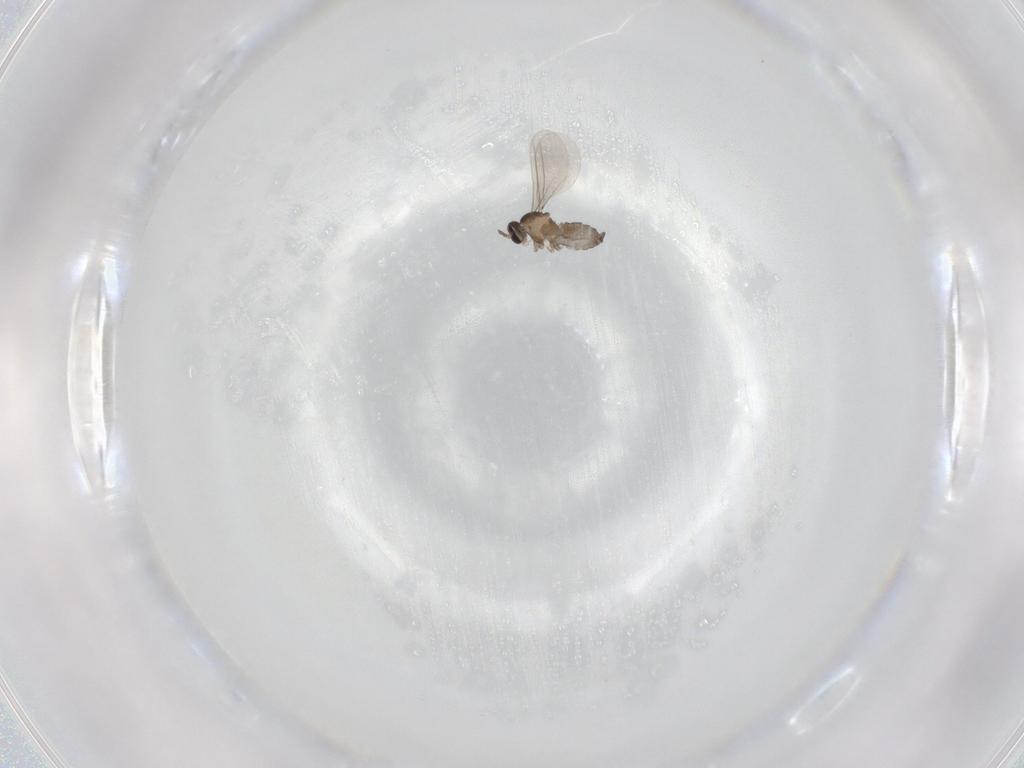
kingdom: Animalia
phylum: Arthropoda
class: Insecta
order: Diptera
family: Cecidomyiidae
